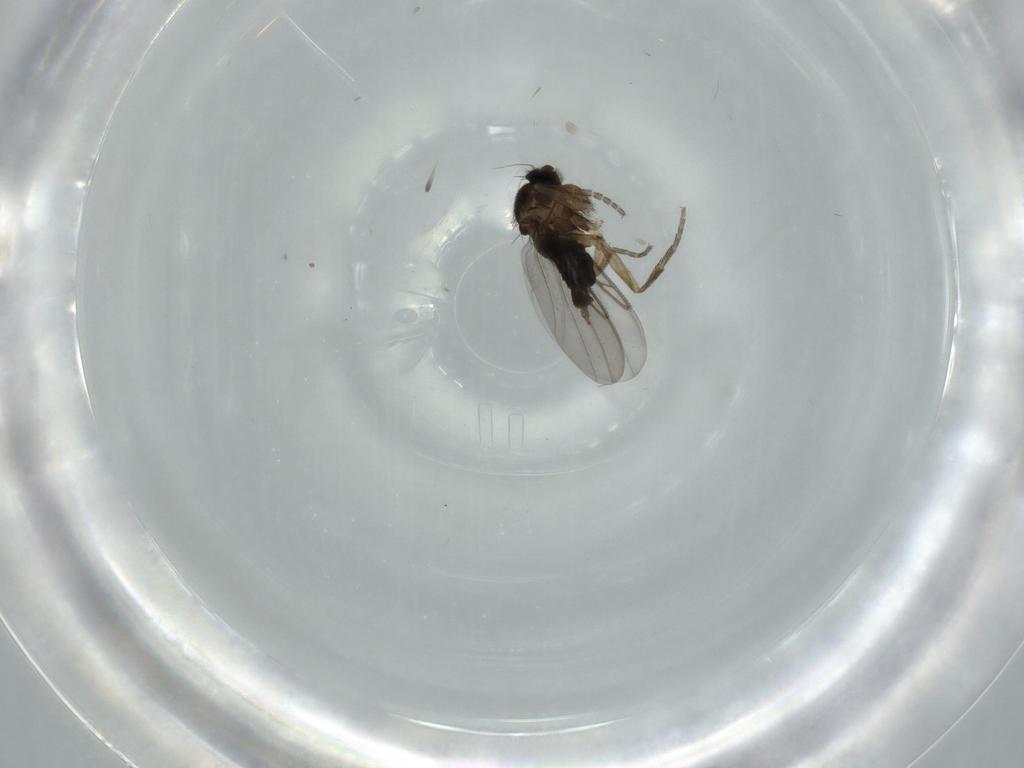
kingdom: Animalia
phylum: Arthropoda
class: Insecta
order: Diptera
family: Phoridae
